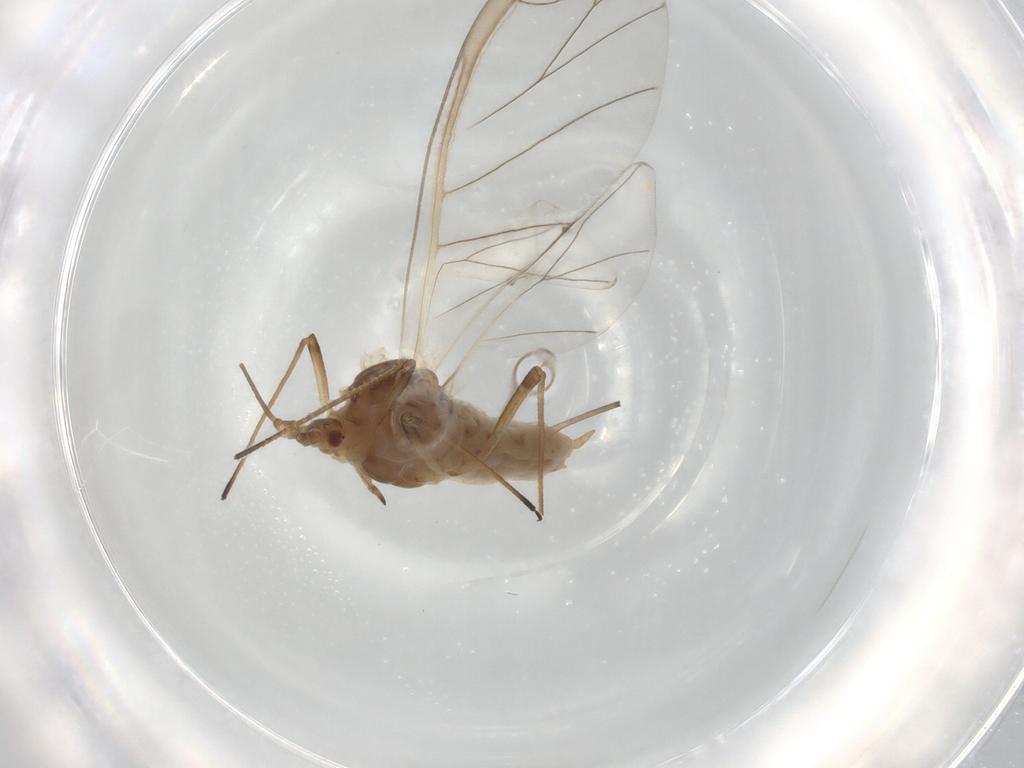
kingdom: Animalia
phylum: Arthropoda
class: Insecta
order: Hemiptera
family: Aphididae
